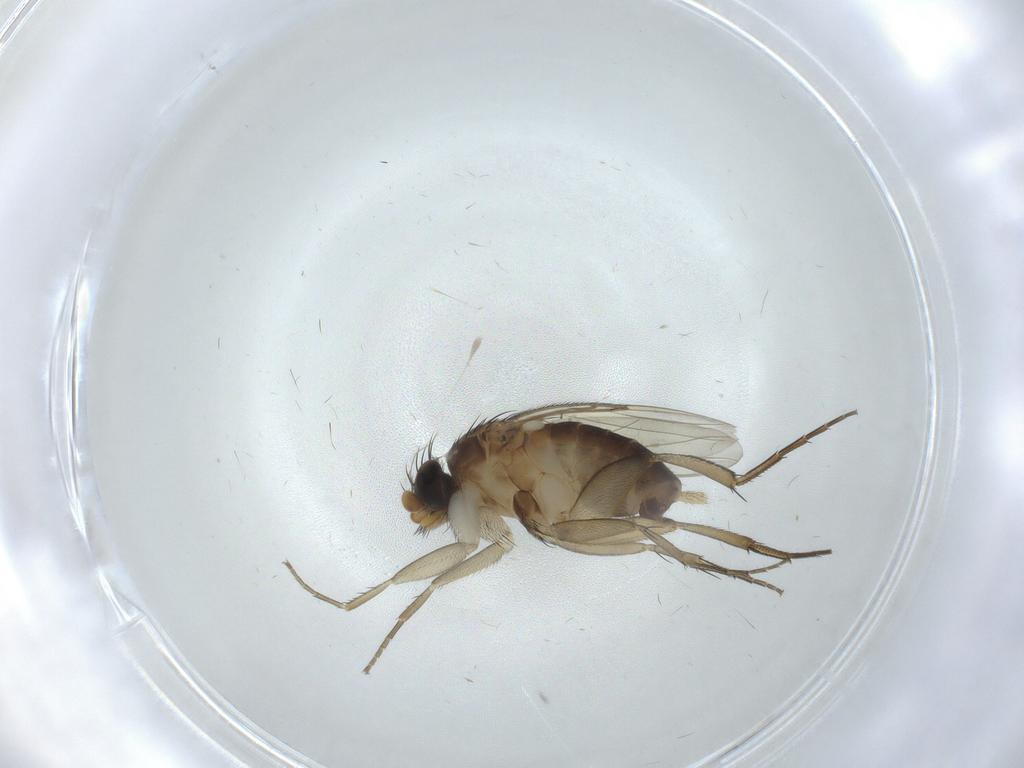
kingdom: Animalia
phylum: Arthropoda
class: Insecta
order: Diptera
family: Phoridae
